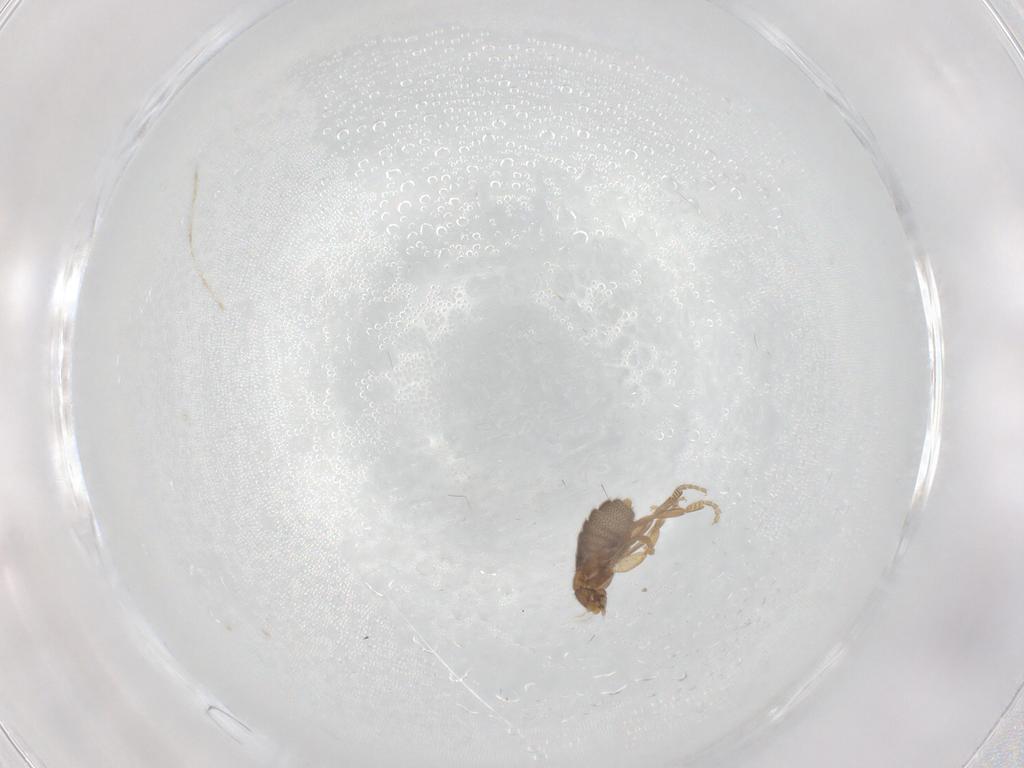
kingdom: Animalia
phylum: Arthropoda
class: Insecta
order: Diptera
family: Phoridae
